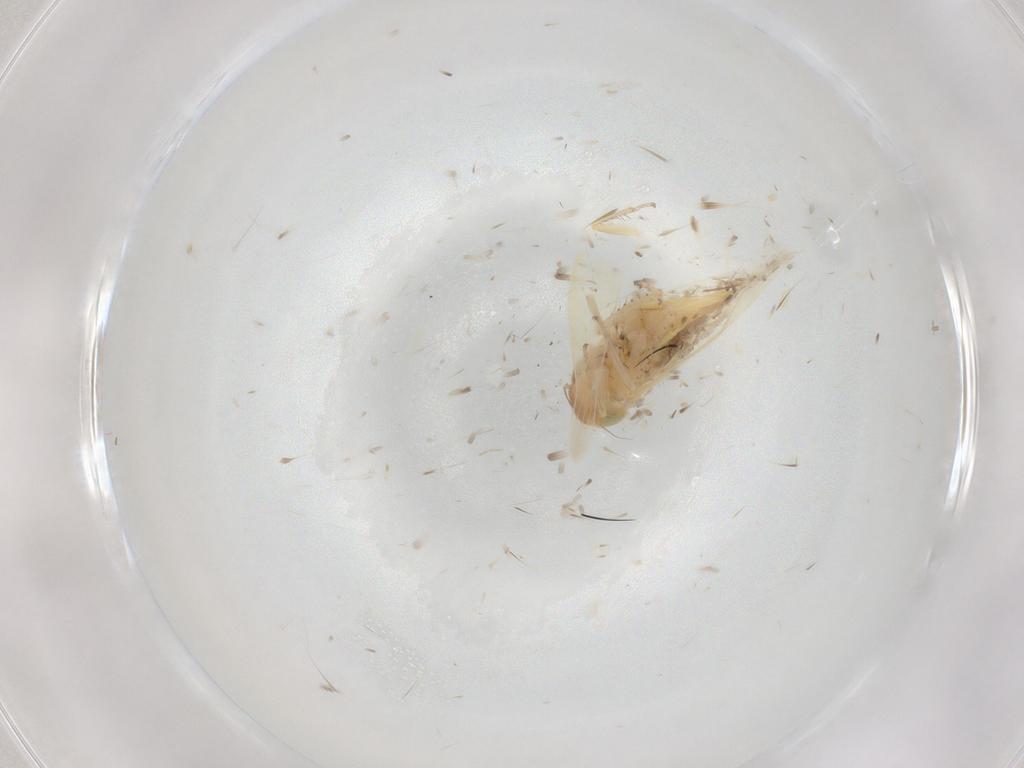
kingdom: Animalia
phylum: Arthropoda
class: Insecta
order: Hemiptera
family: Cicadellidae
